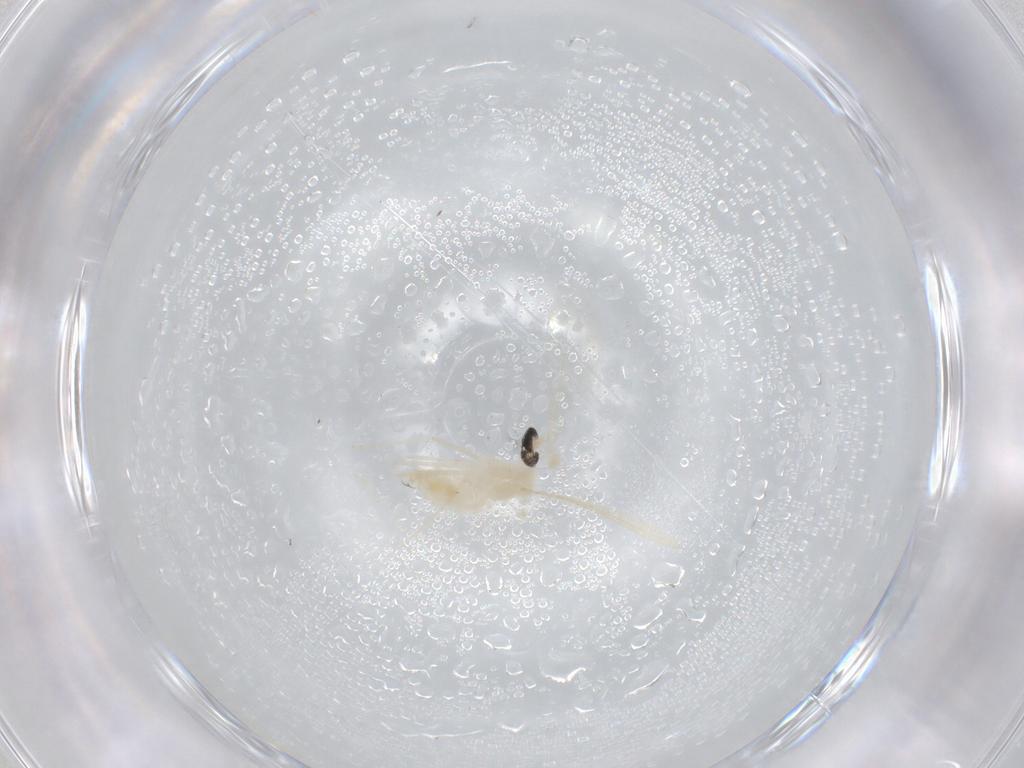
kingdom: Animalia
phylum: Arthropoda
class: Insecta
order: Diptera
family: Cecidomyiidae
